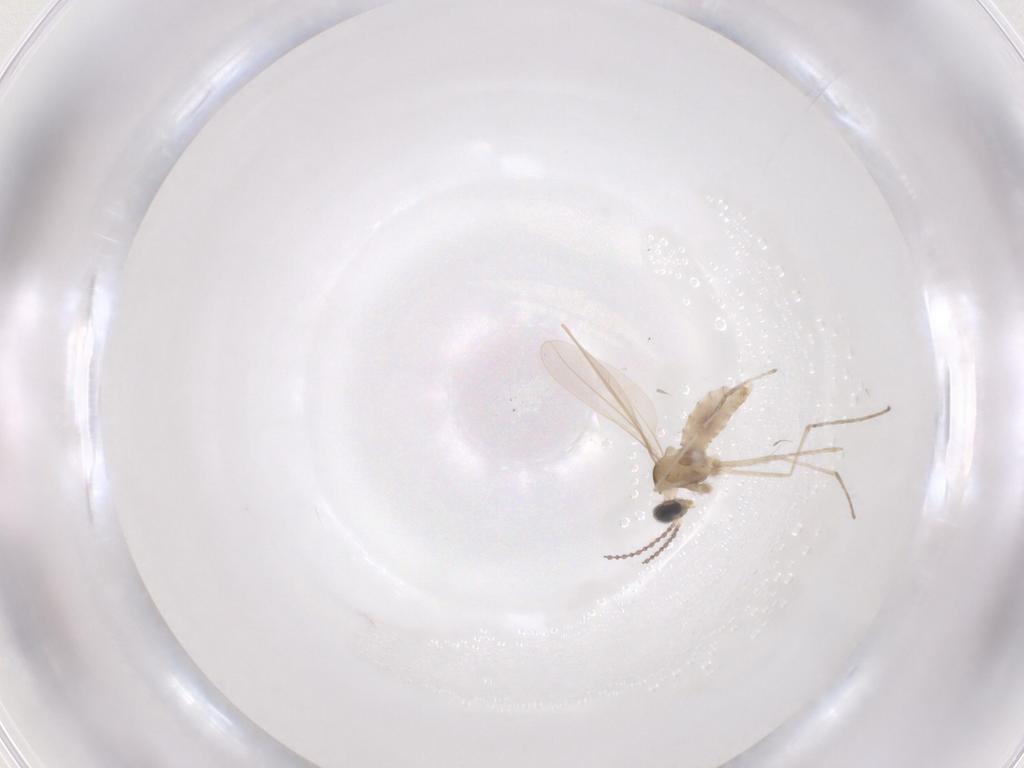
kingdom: Animalia
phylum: Arthropoda
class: Insecta
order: Diptera
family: Cecidomyiidae
